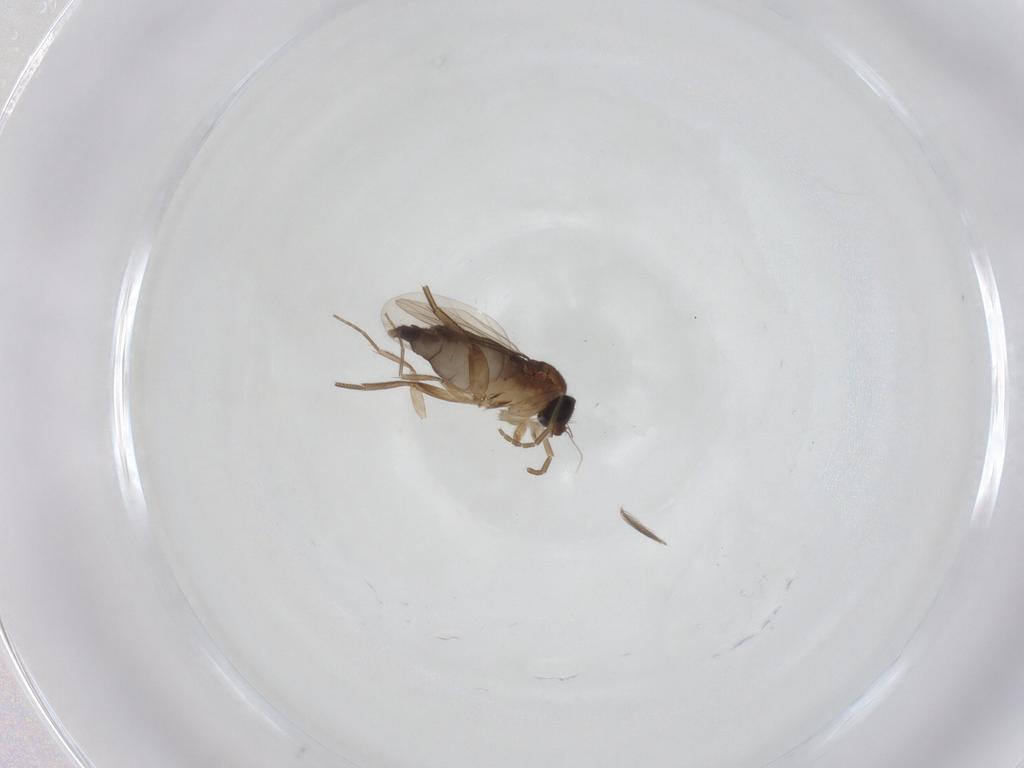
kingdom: Animalia
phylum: Arthropoda
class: Insecta
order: Diptera
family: Phoridae
